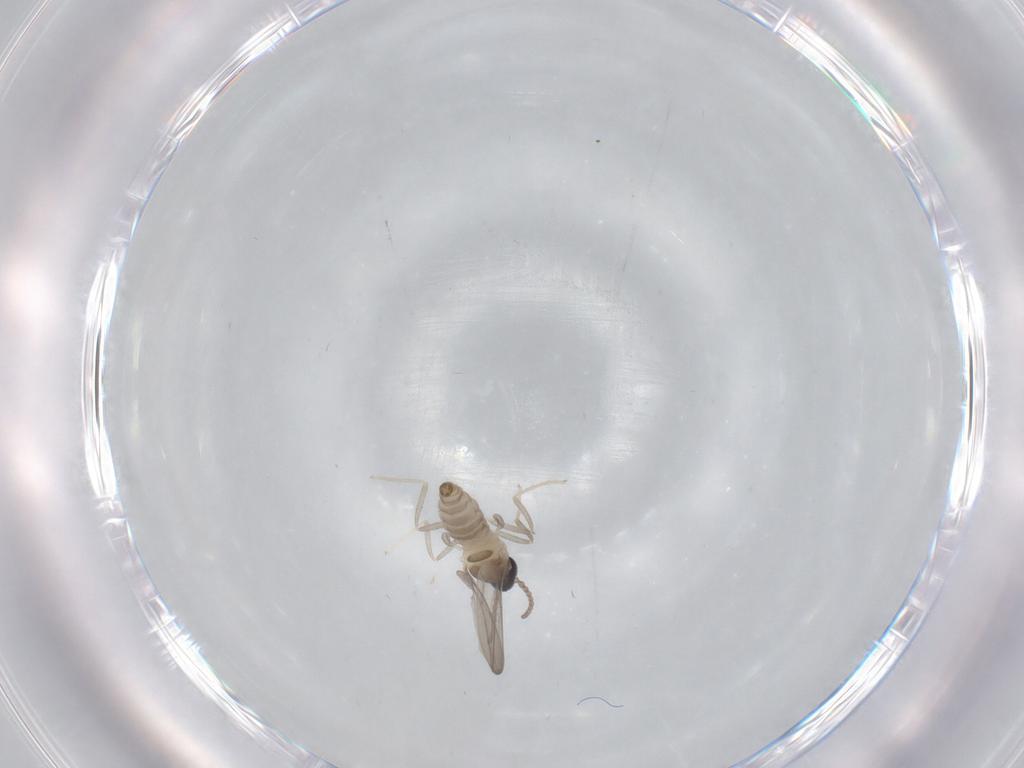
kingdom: Animalia
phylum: Arthropoda
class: Insecta
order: Diptera
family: Cecidomyiidae
